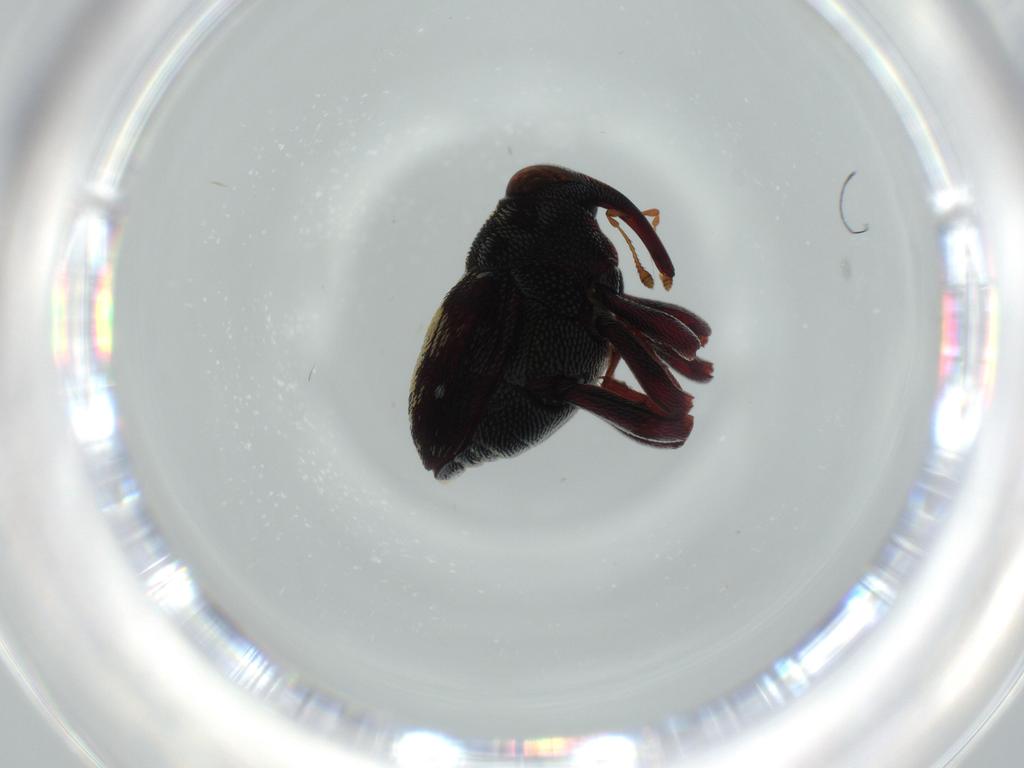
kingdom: Animalia
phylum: Arthropoda
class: Insecta
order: Coleoptera
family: Curculionidae
